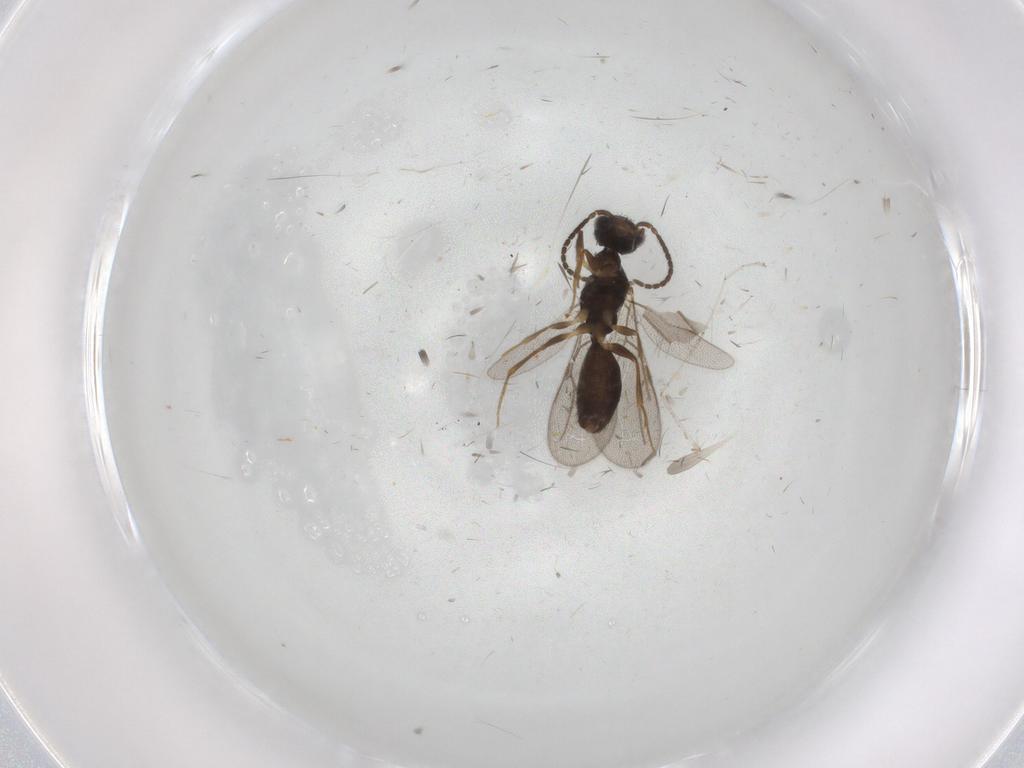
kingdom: Animalia
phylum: Arthropoda
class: Insecta
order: Hymenoptera
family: Bethylidae
